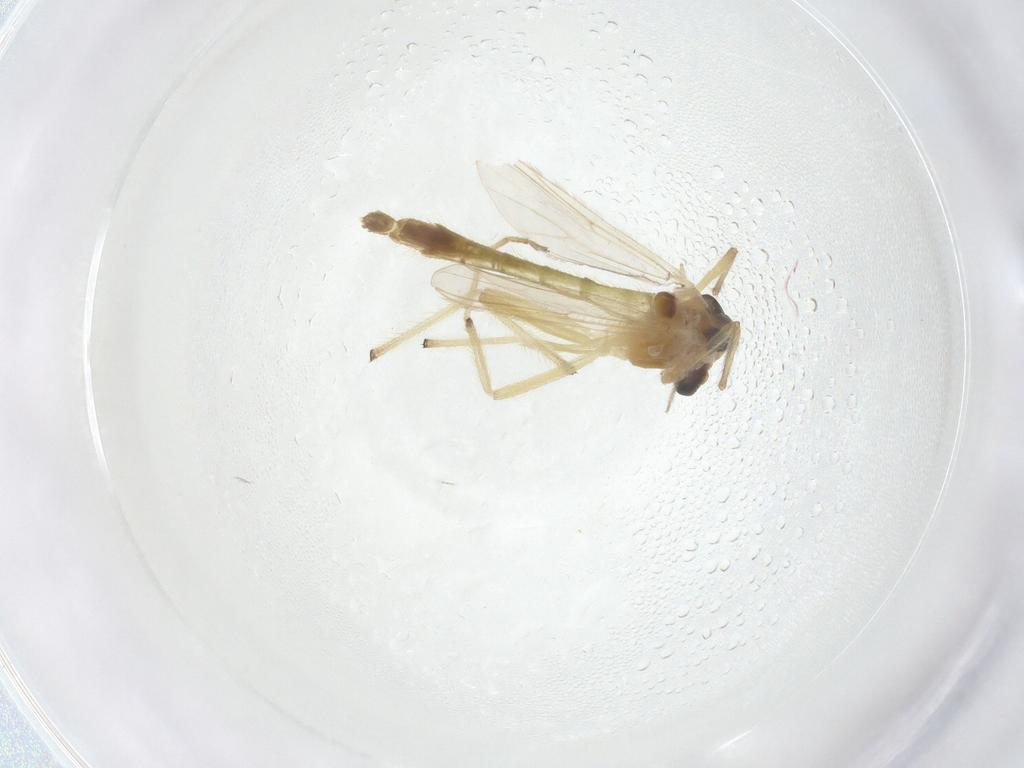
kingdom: Animalia
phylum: Arthropoda
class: Insecta
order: Diptera
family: Chironomidae
